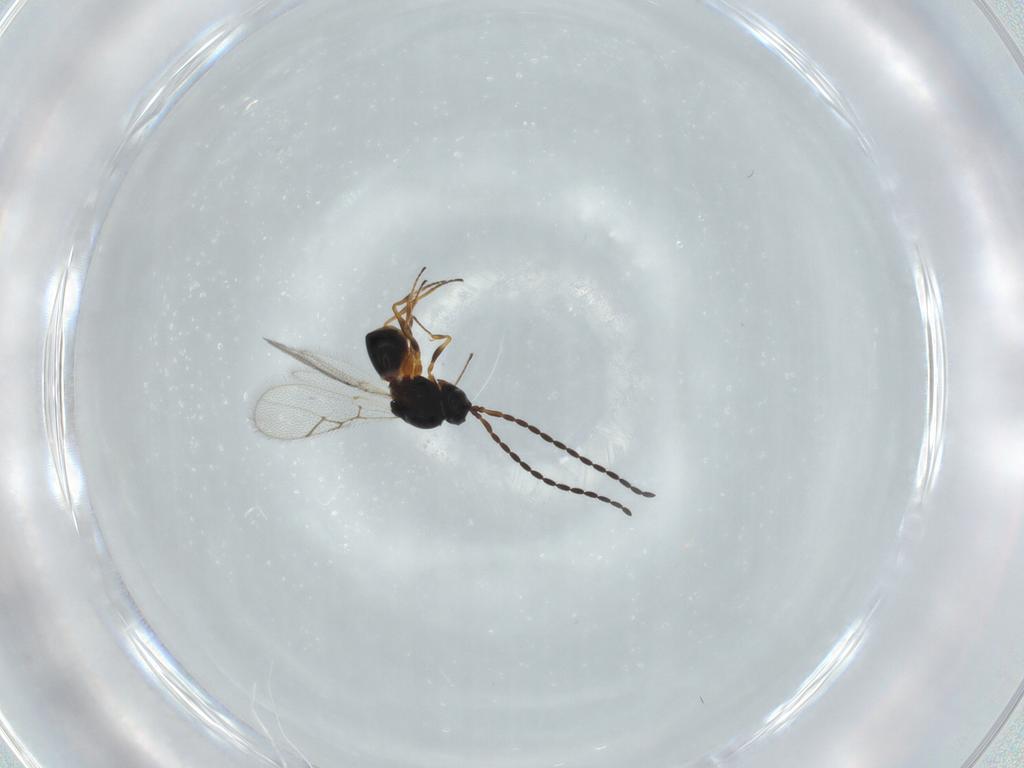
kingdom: Animalia
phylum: Arthropoda
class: Insecta
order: Hymenoptera
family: Figitidae
